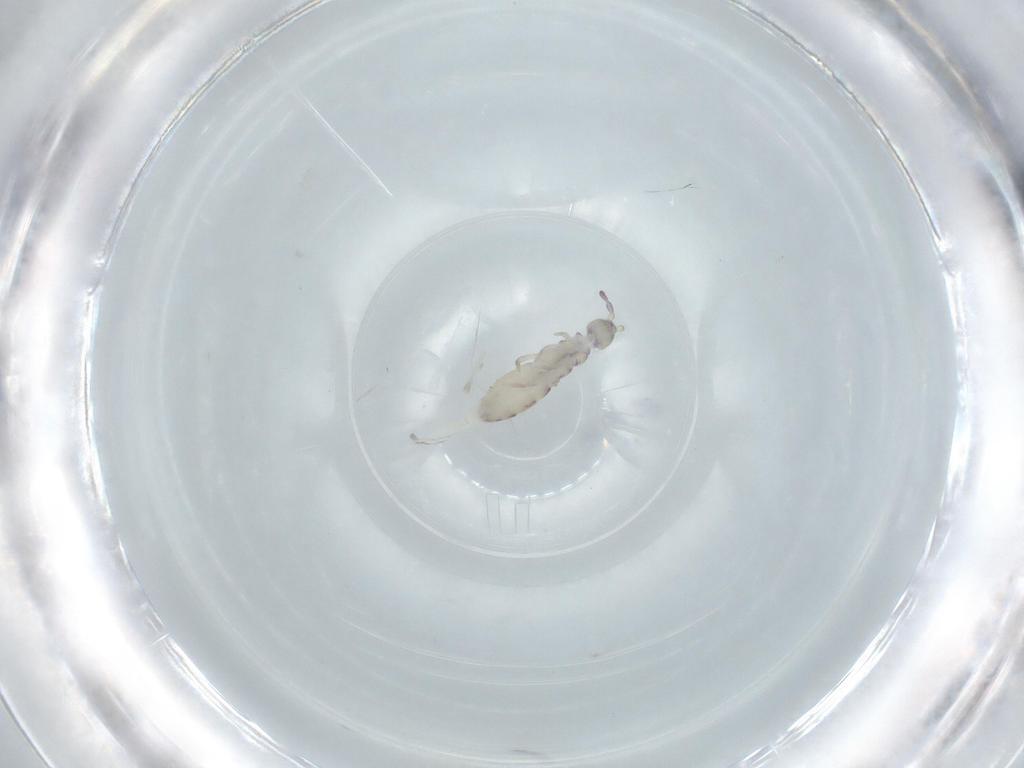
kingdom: Animalia
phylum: Arthropoda
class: Collembola
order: Entomobryomorpha
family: Isotomidae
